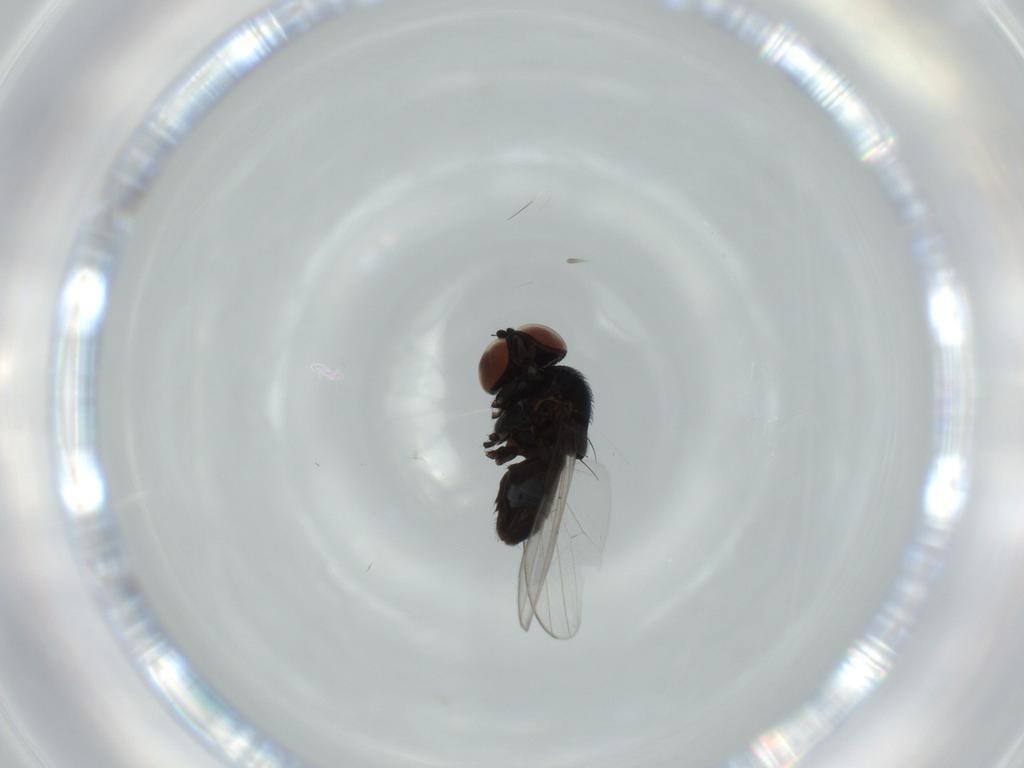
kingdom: Animalia
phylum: Arthropoda
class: Insecta
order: Diptera
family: Milichiidae
